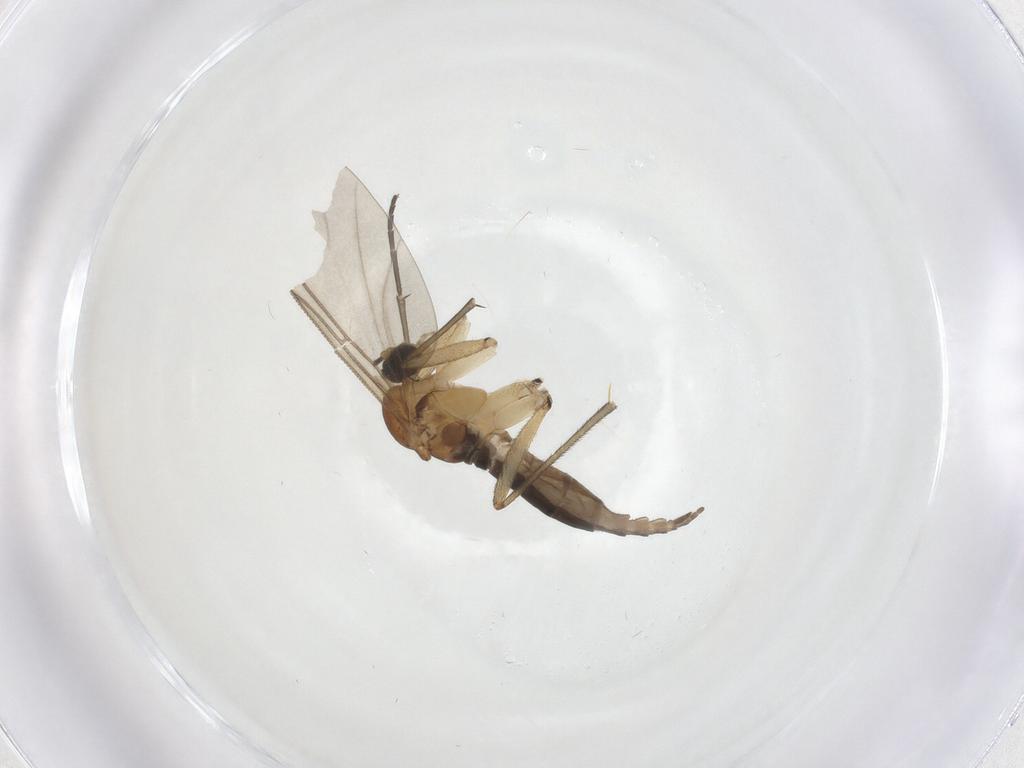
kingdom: Animalia
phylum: Arthropoda
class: Insecta
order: Diptera
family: Sciaridae
